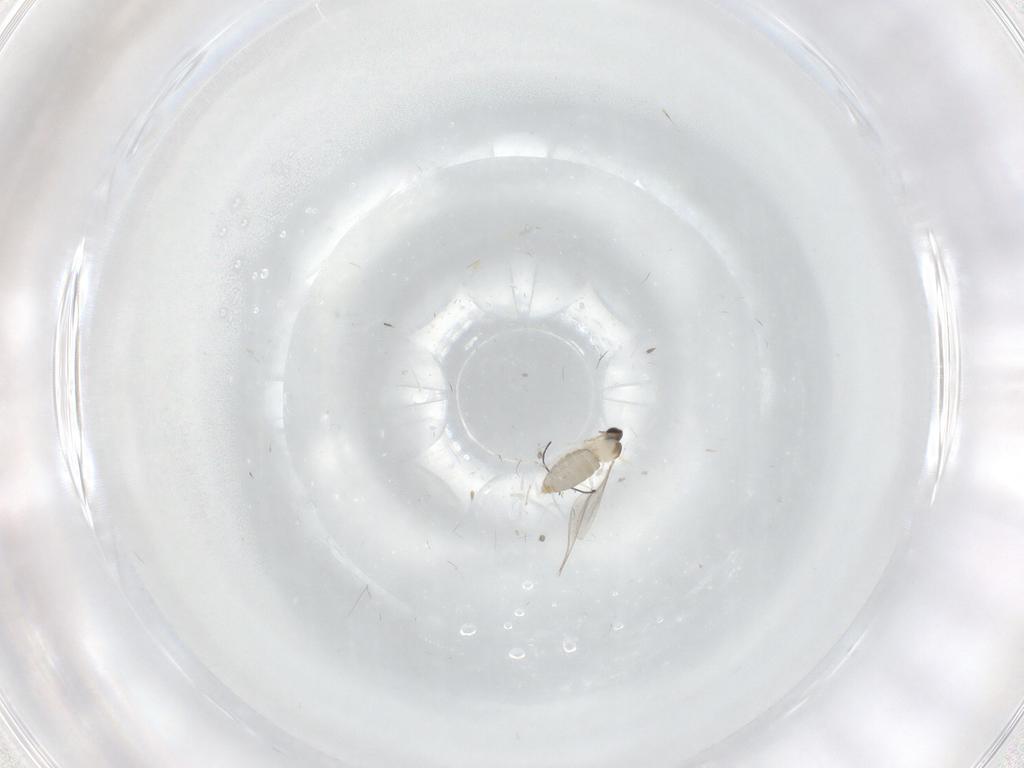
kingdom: Animalia
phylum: Arthropoda
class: Insecta
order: Diptera
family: Cecidomyiidae
